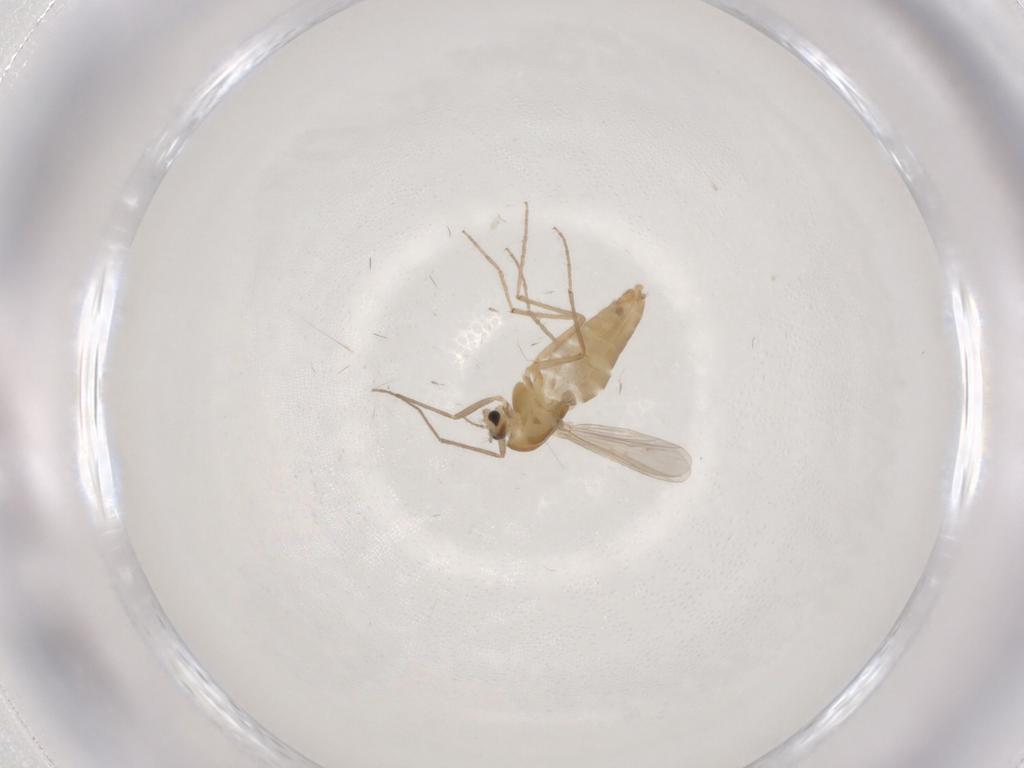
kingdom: Animalia
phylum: Arthropoda
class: Insecta
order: Diptera
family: Chironomidae
